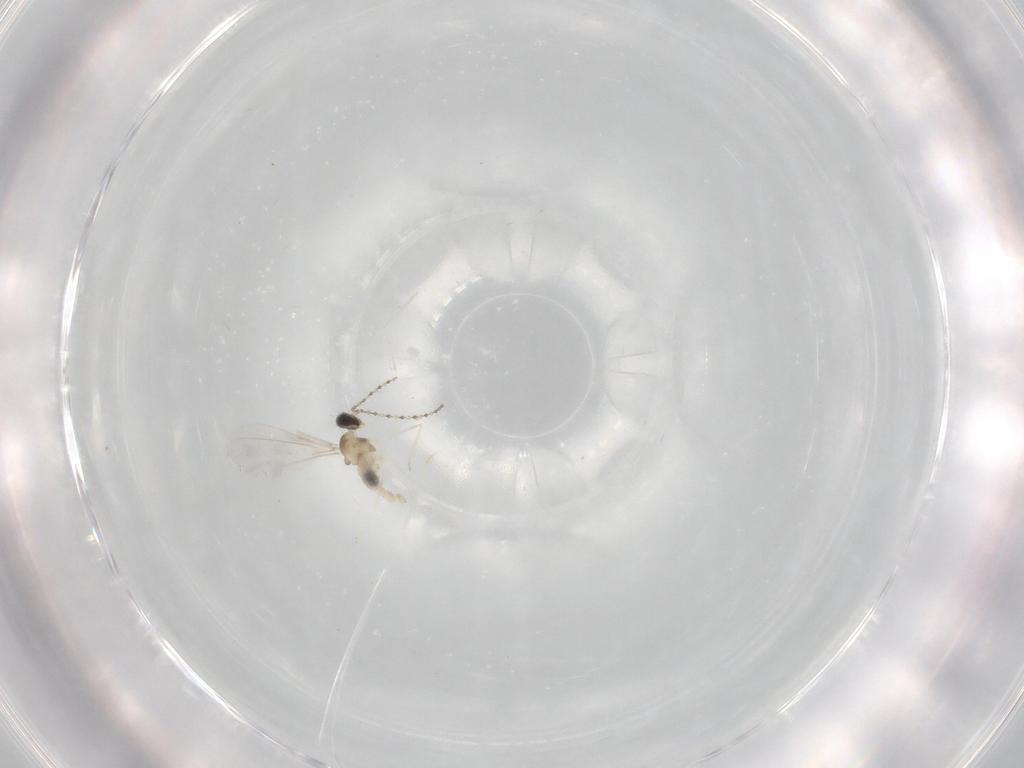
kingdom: Animalia
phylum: Arthropoda
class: Insecta
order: Diptera
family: Cecidomyiidae
